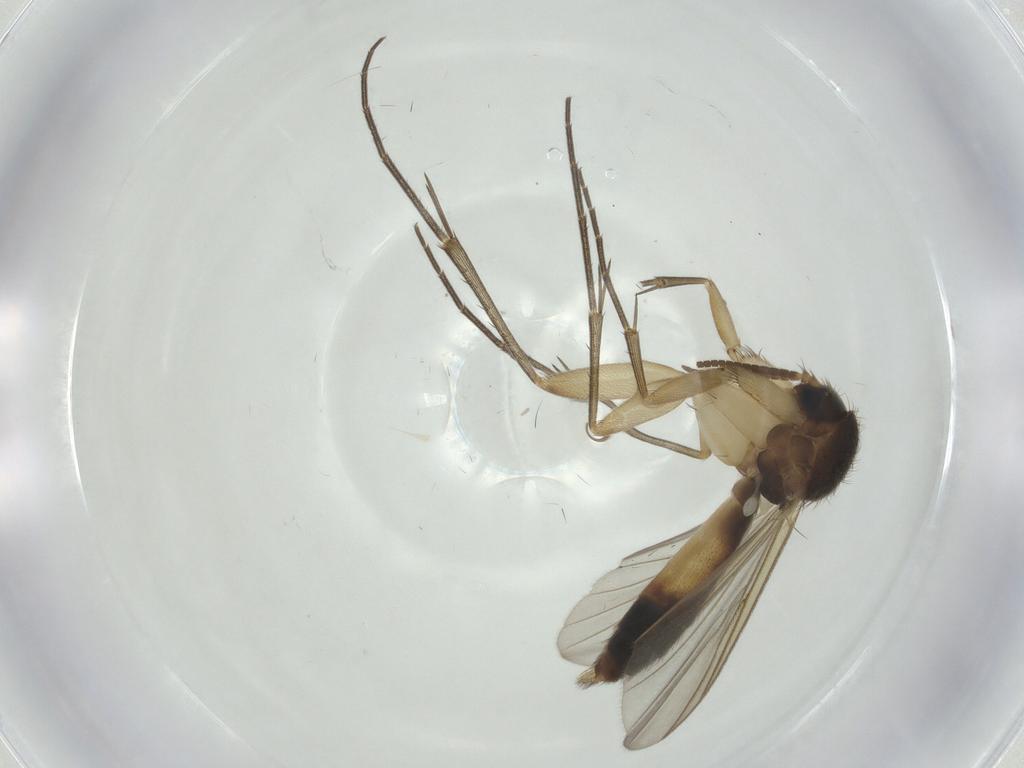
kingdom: Animalia
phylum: Arthropoda
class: Insecta
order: Diptera
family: Mycetophilidae
